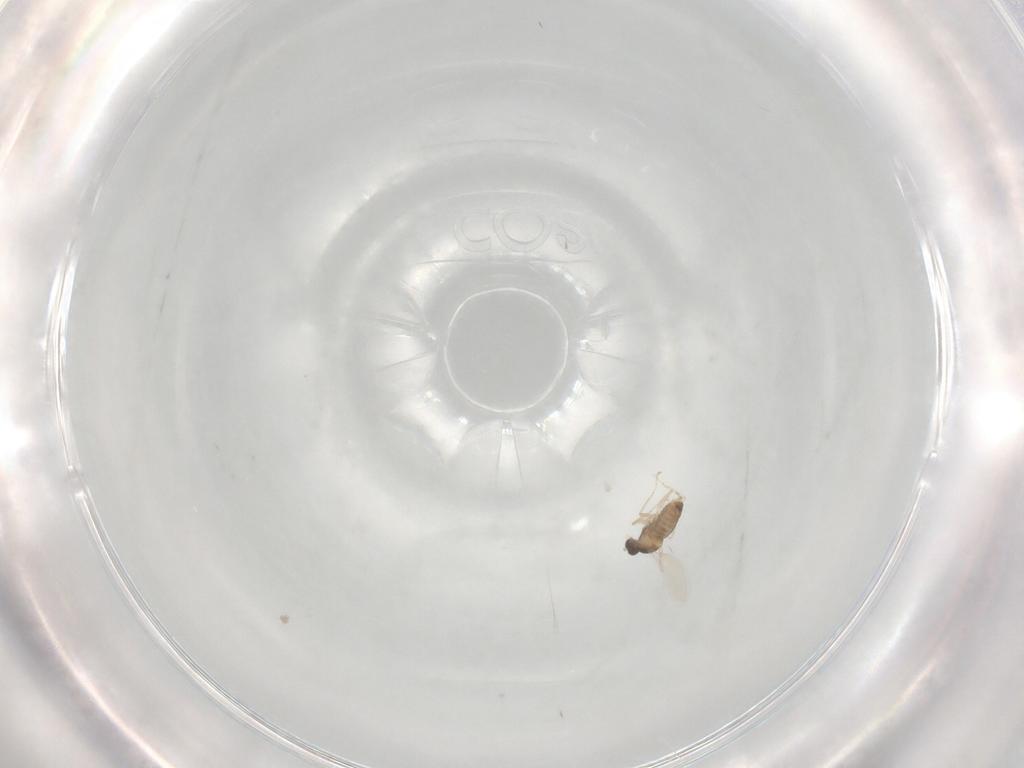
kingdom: Animalia
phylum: Arthropoda
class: Insecta
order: Diptera
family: Cecidomyiidae
